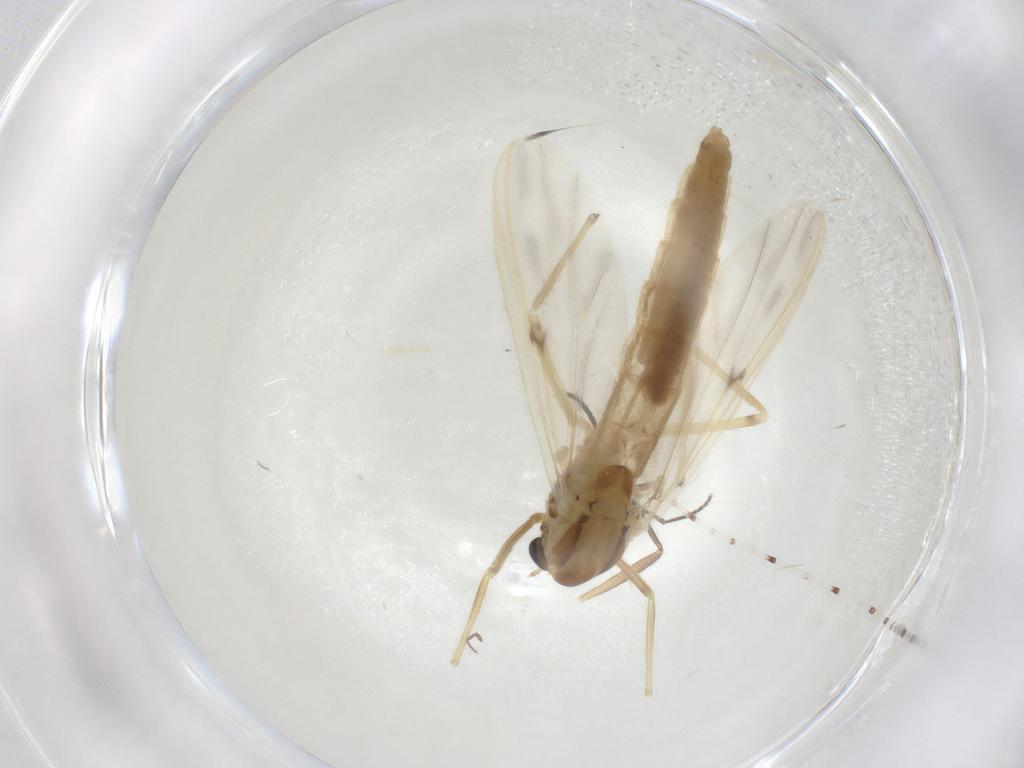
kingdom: Animalia
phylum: Arthropoda
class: Insecta
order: Diptera
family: Chironomidae
